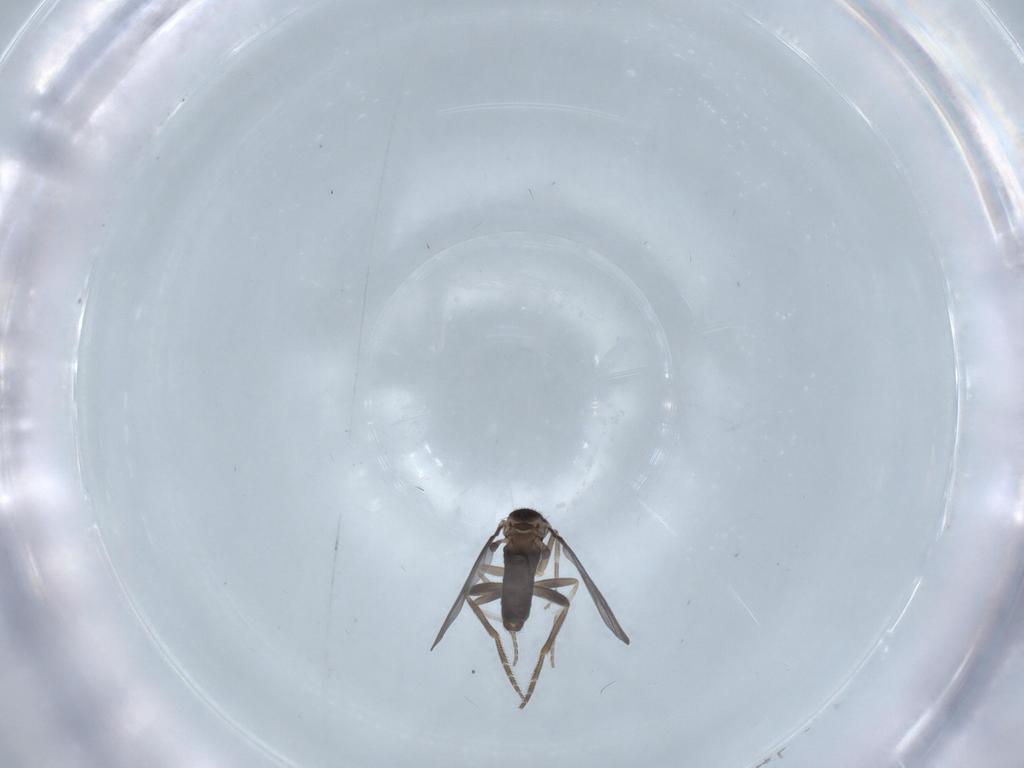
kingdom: Animalia
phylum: Arthropoda
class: Insecta
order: Diptera
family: Phoridae
